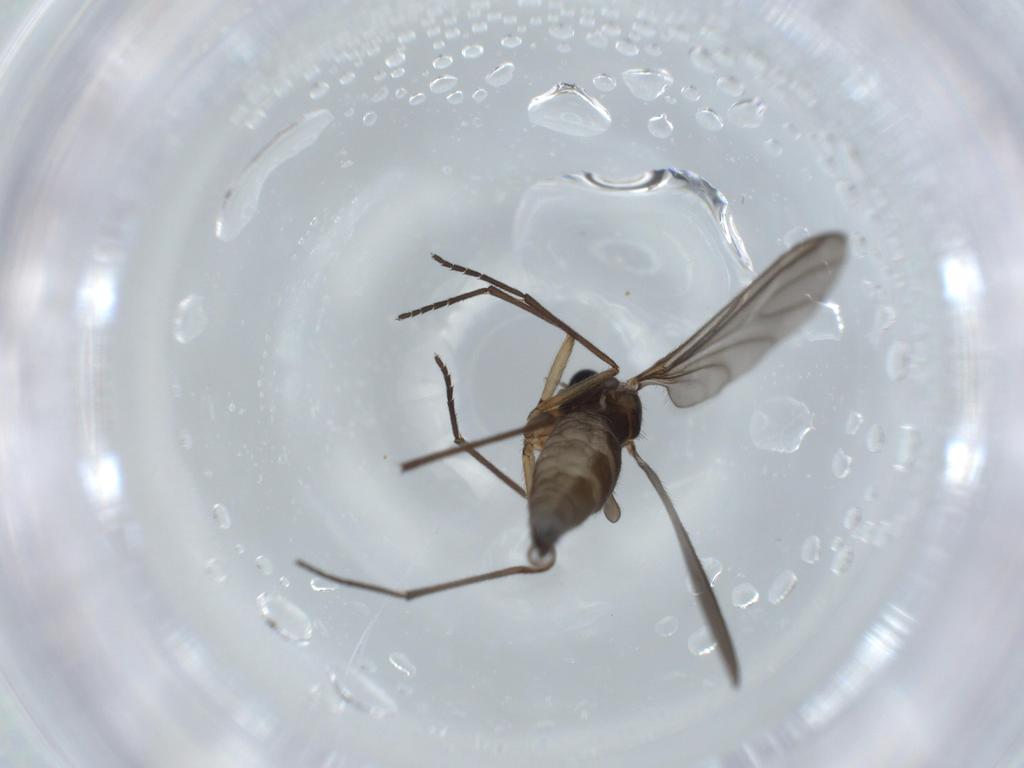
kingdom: Animalia
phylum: Arthropoda
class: Insecta
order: Diptera
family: Sciaridae
